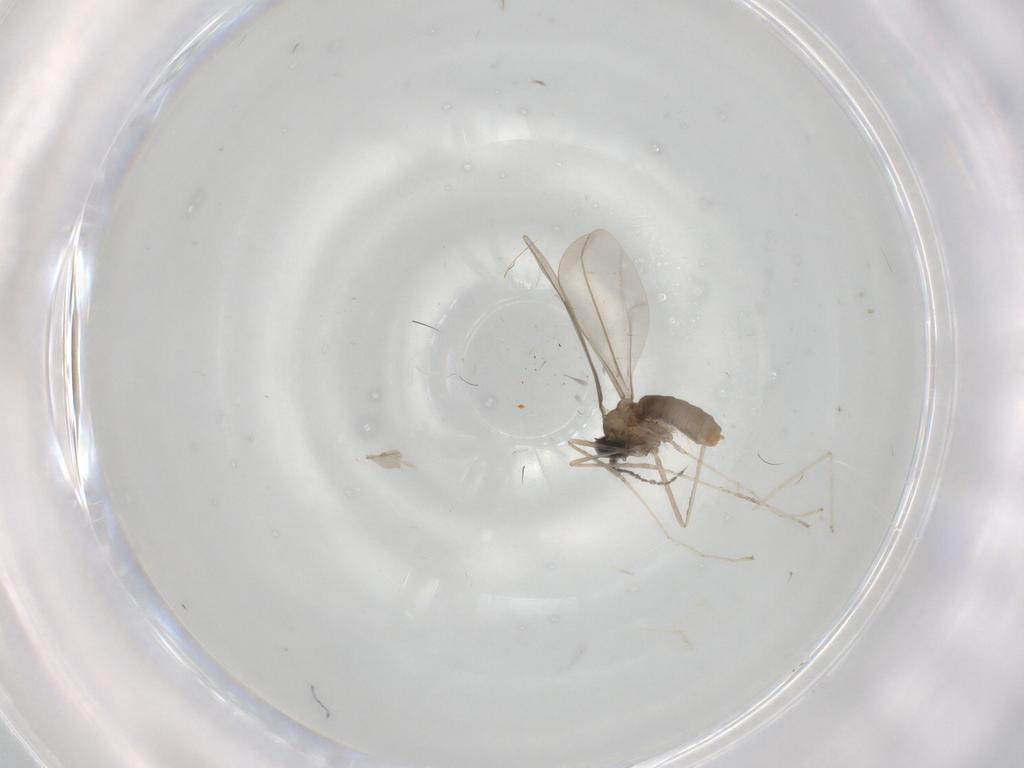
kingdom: Animalia
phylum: Arthropoda
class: Insecta
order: Diptera
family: Cecidomyiidae
